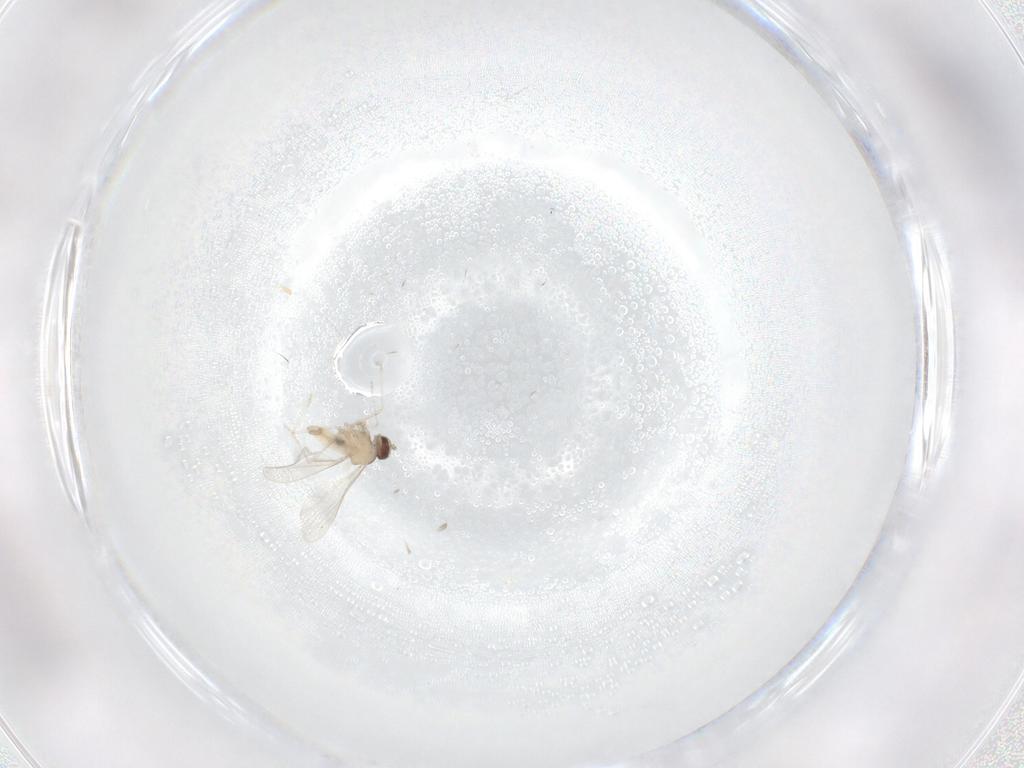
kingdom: Animalia
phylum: Arthropoda
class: Insecta
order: Diptera
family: Cecidomyiidae
